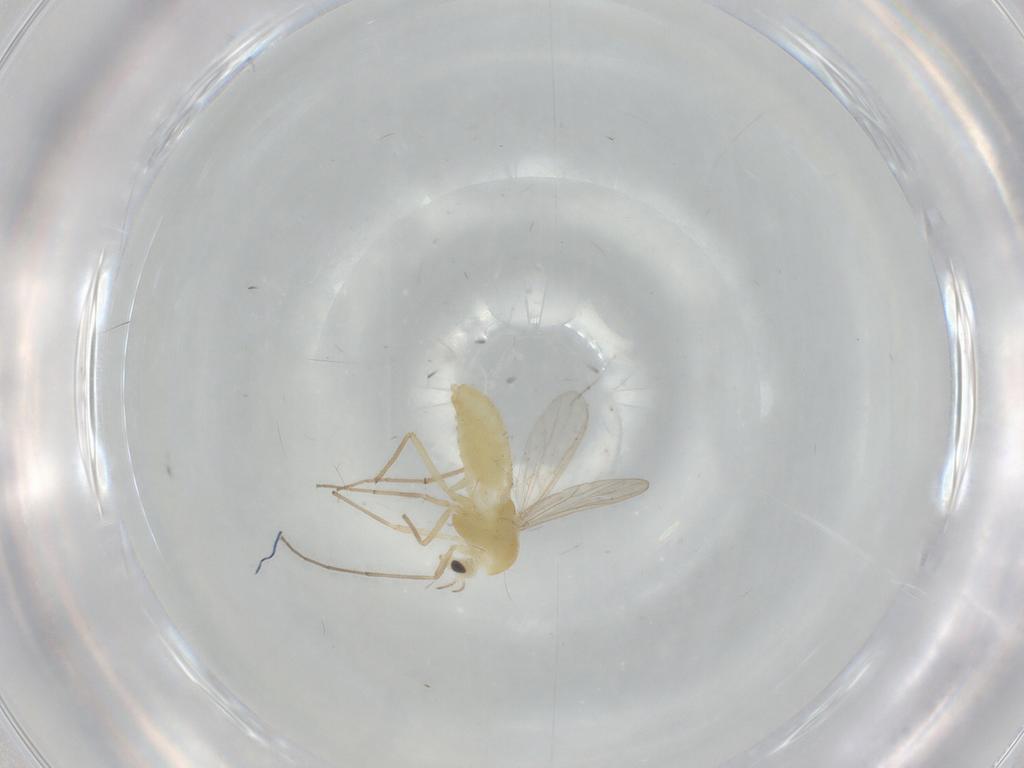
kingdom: Animalia
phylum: Arthropoda
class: Insecta
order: Diptera
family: Chironomidae
